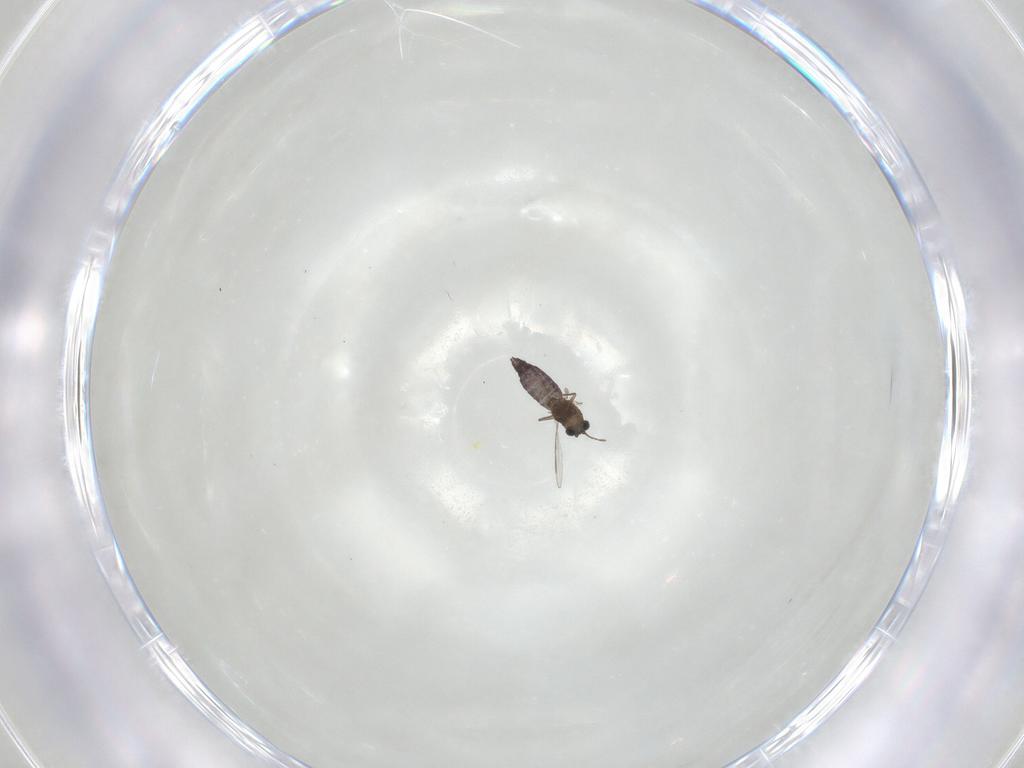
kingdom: Animalia
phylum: Arthropoda
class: Insecta
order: Diptera
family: Chironomidae
